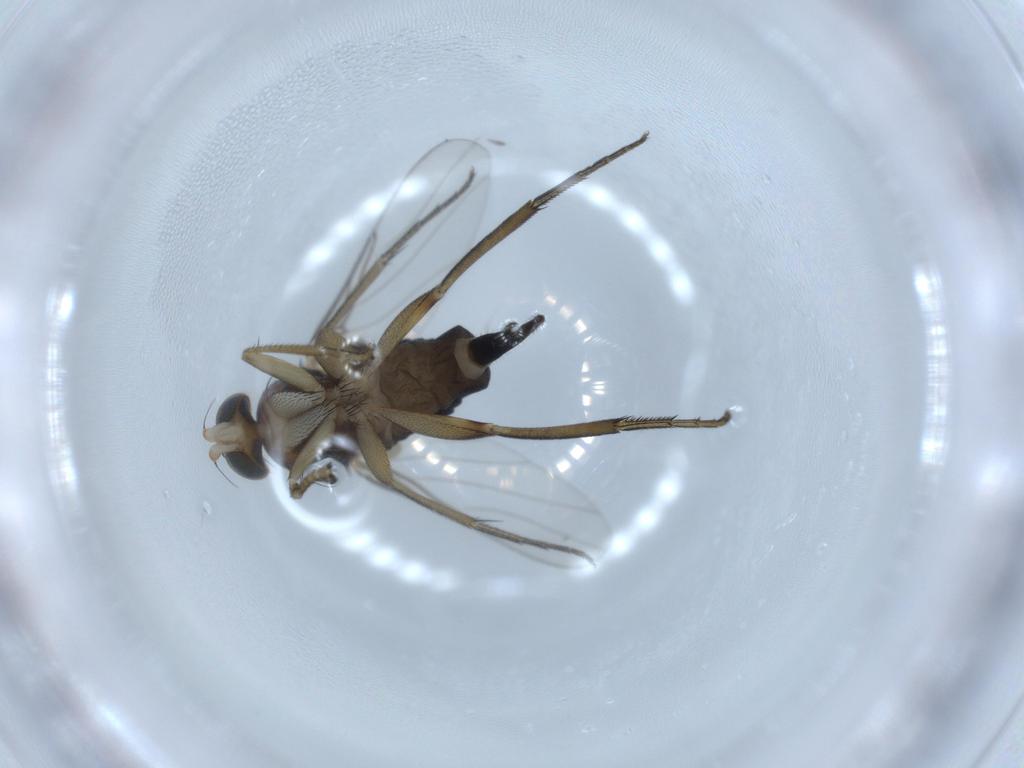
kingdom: Animalia
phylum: Arthropoda
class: Insecta
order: Diptera
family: Phoridae
